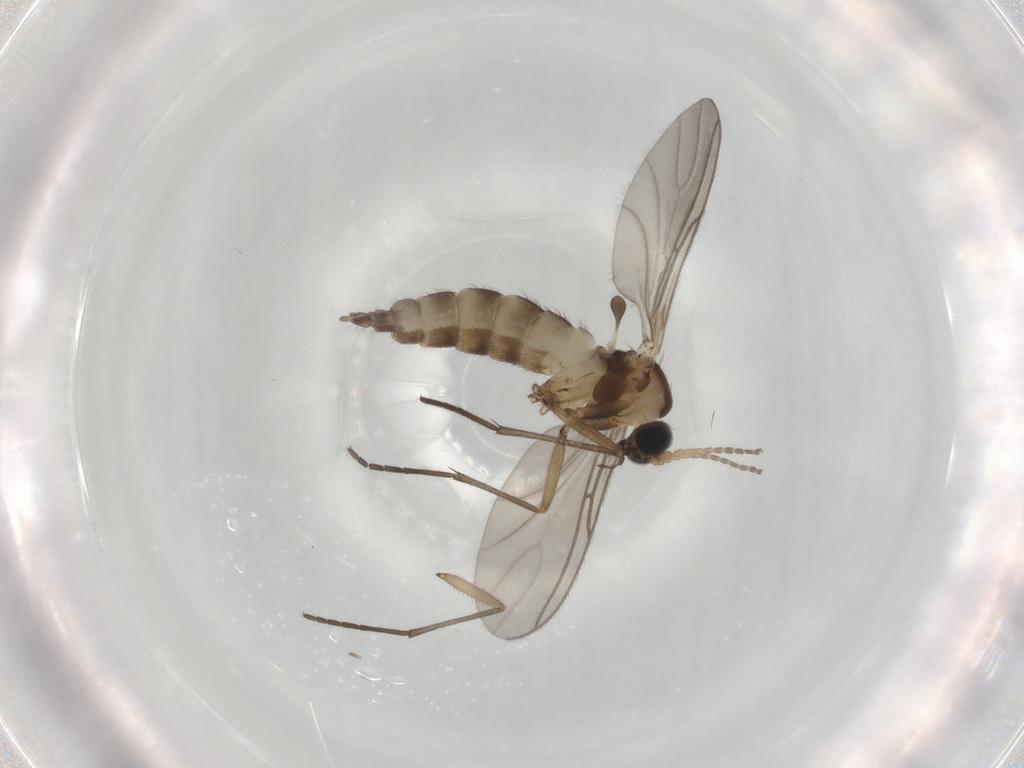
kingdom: Animalia
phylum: Arthropoda
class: Insecta
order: Diptera
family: Sciaridae
